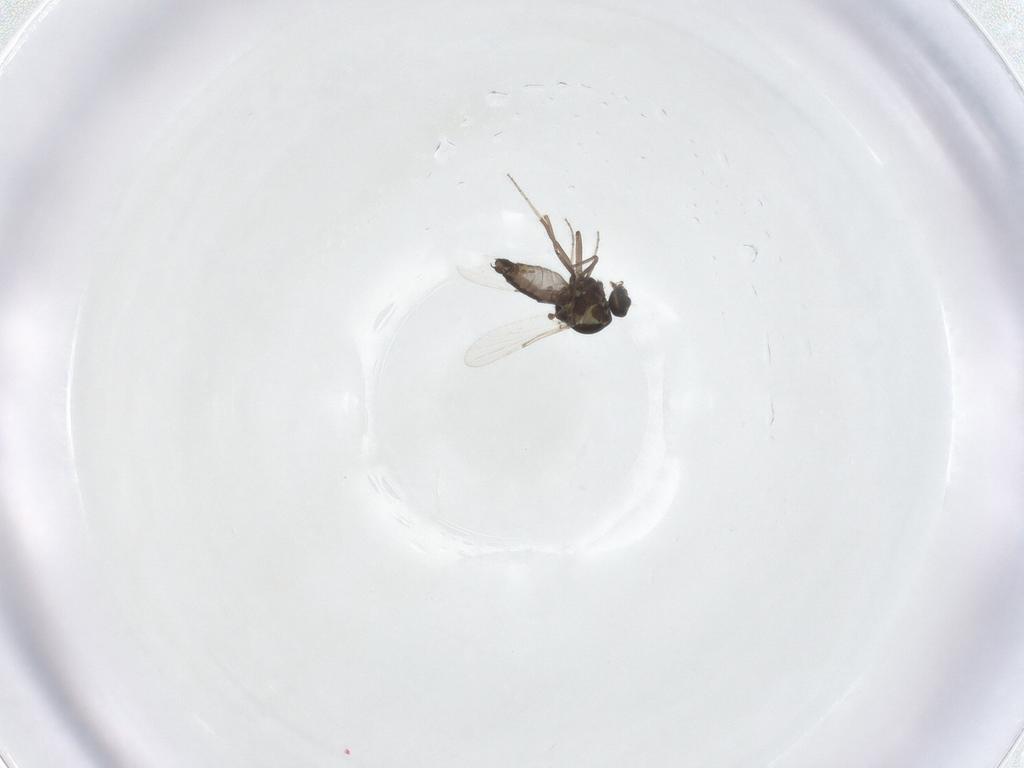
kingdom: Animalia
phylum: Arthropoda
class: Insecta
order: Diptera
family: Ceratopogonidae
